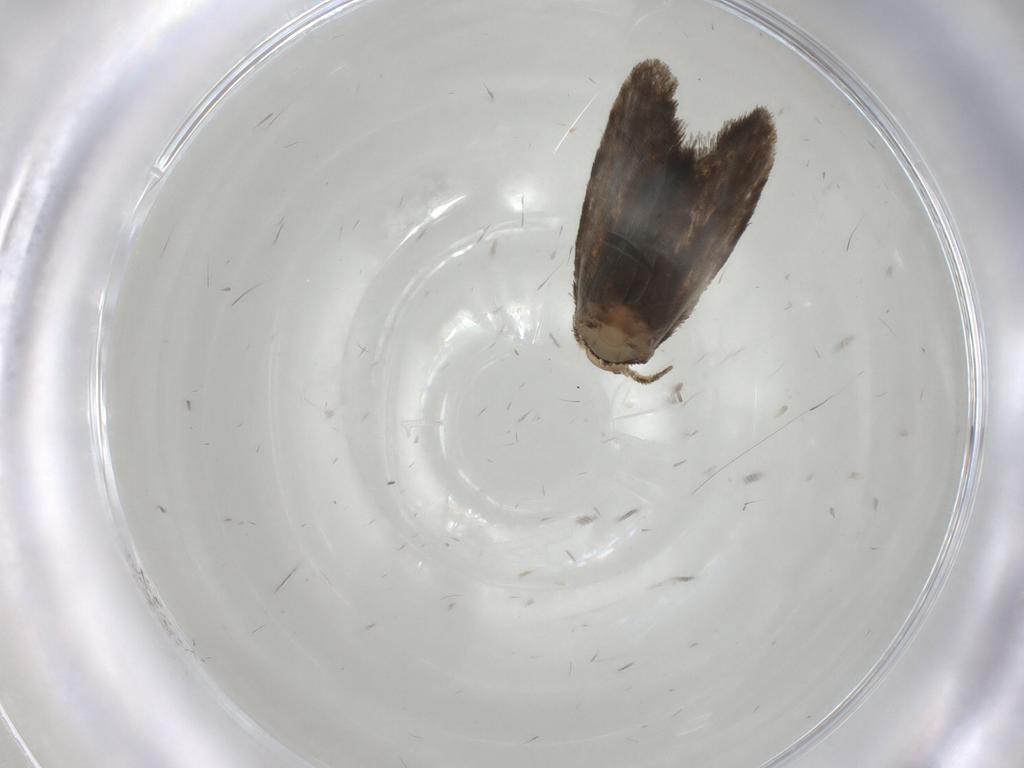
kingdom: Animalia
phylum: Arthropoda
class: Insecta
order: Lepidoptera
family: Psychidae
